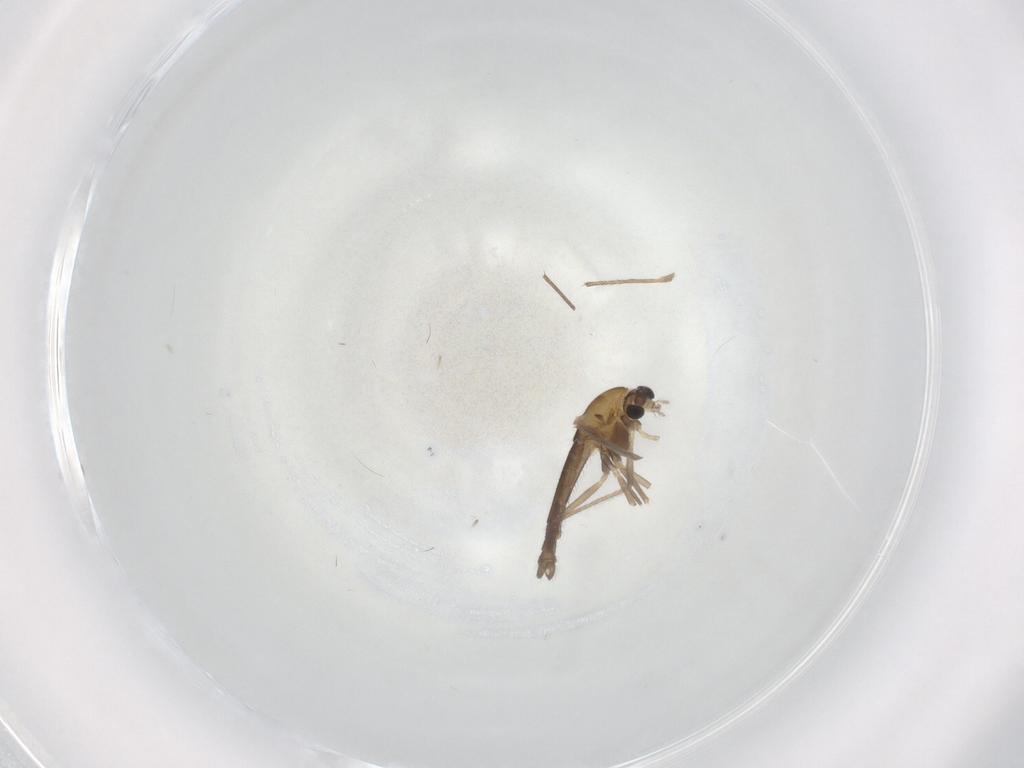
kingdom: Animalia
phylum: Arthropoda
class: Insecta
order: Diptera
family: Chironomidae
